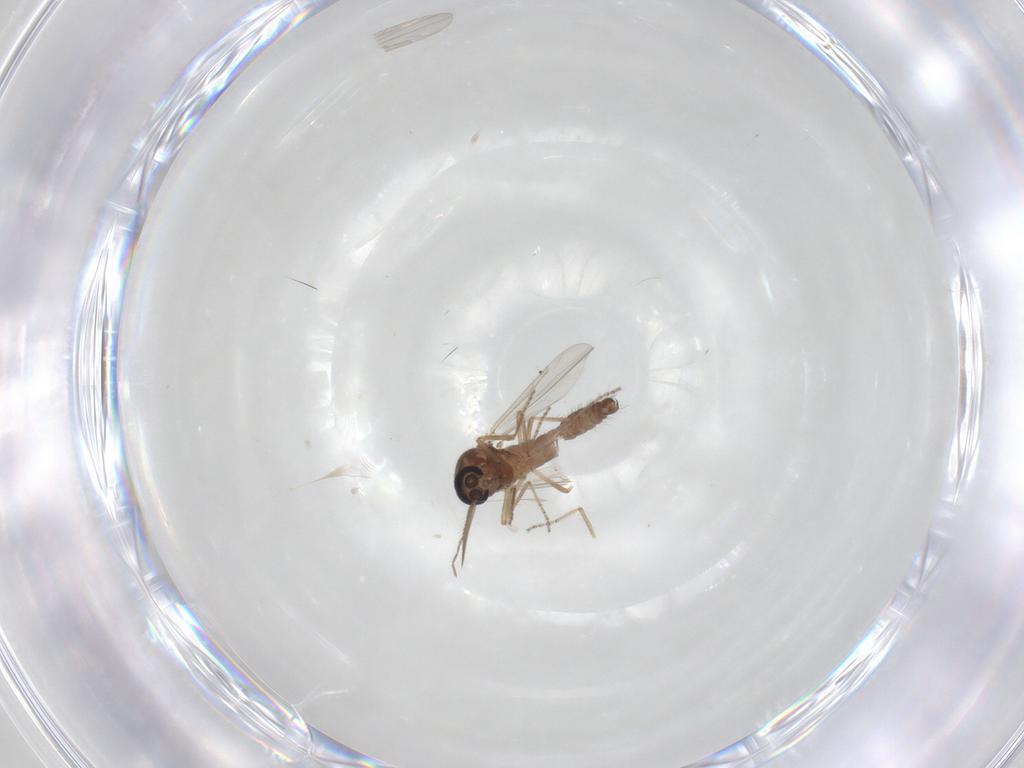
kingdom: Animalia
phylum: Arthropoda
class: Insecta
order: Diptera
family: Ceratopogonidae
